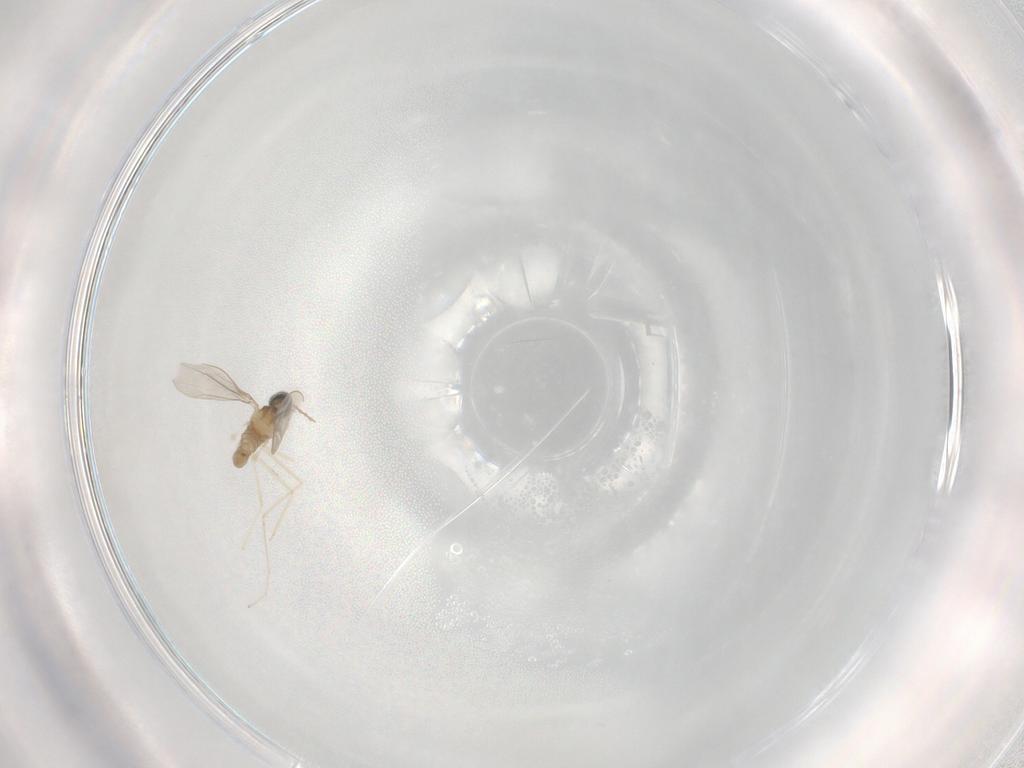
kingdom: Animalia
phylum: Arthropoda
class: Insecta
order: Diptera
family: Cecidomyiidae
